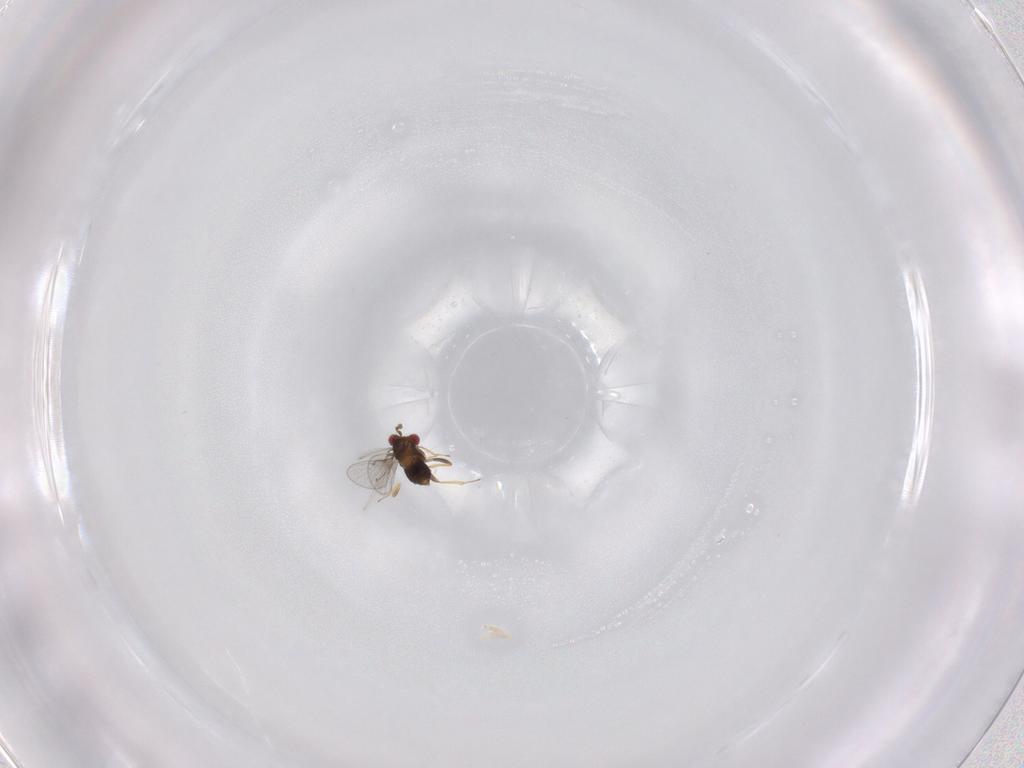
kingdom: Animalia
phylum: Arthropoda
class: Insecta
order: Hymenoptera
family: Trichogrammatidae
